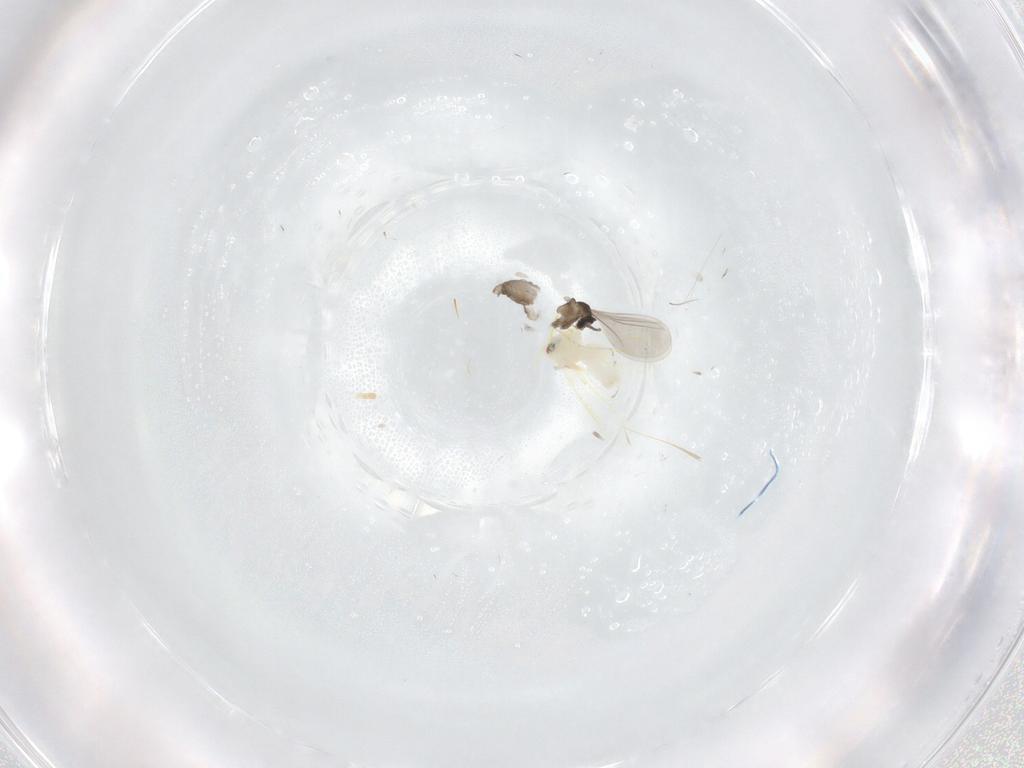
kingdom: Animalia
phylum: Arthropoda
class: Insecta
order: Diptera
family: Cecidomyiidae
